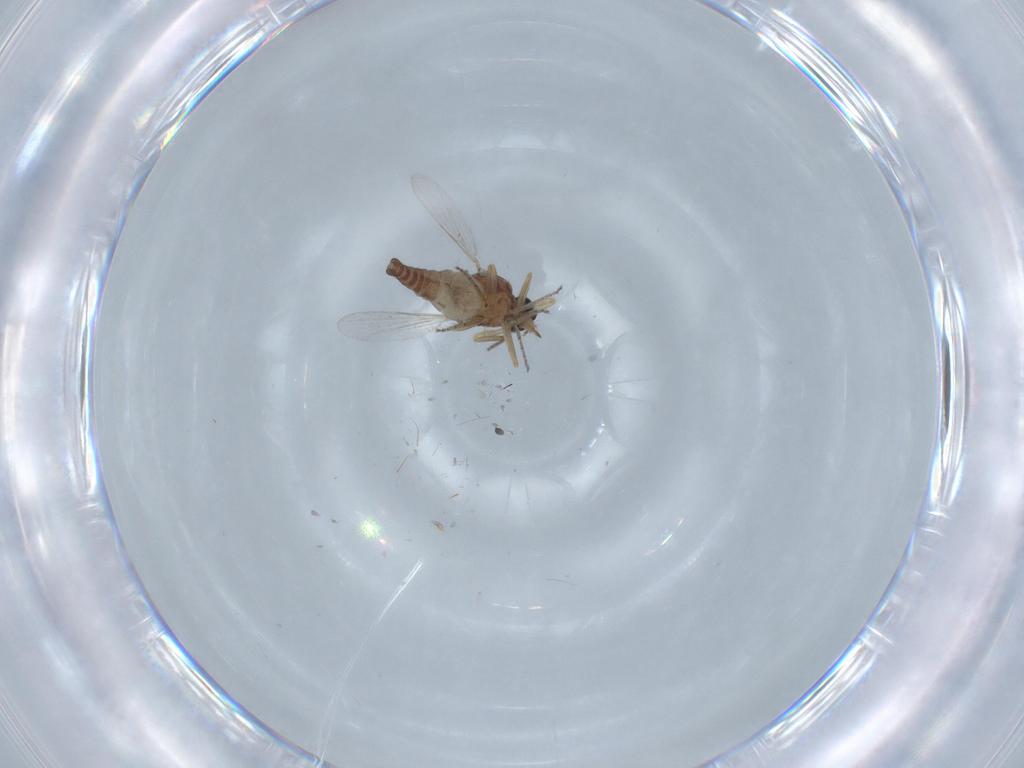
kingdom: Animalia
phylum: Arthropoda
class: Insecta
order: Diptera
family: Ceratopogonidae
